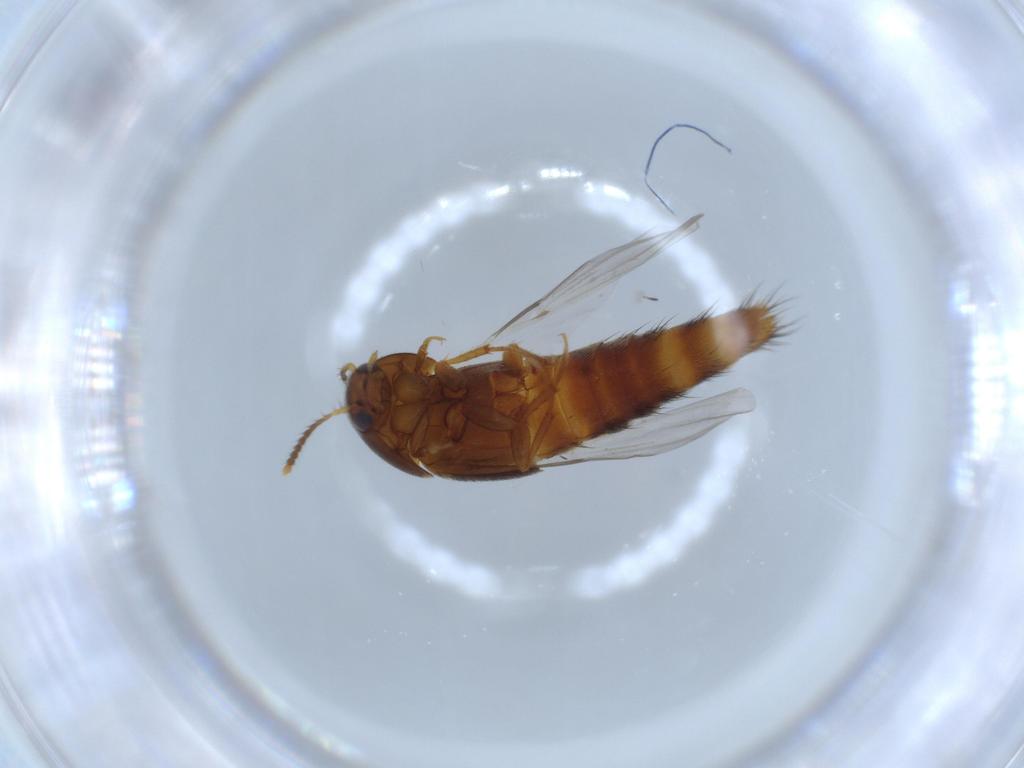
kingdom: Animalia
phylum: Arthropoda
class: Insecta
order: Coleoptera
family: Staphylinidae
